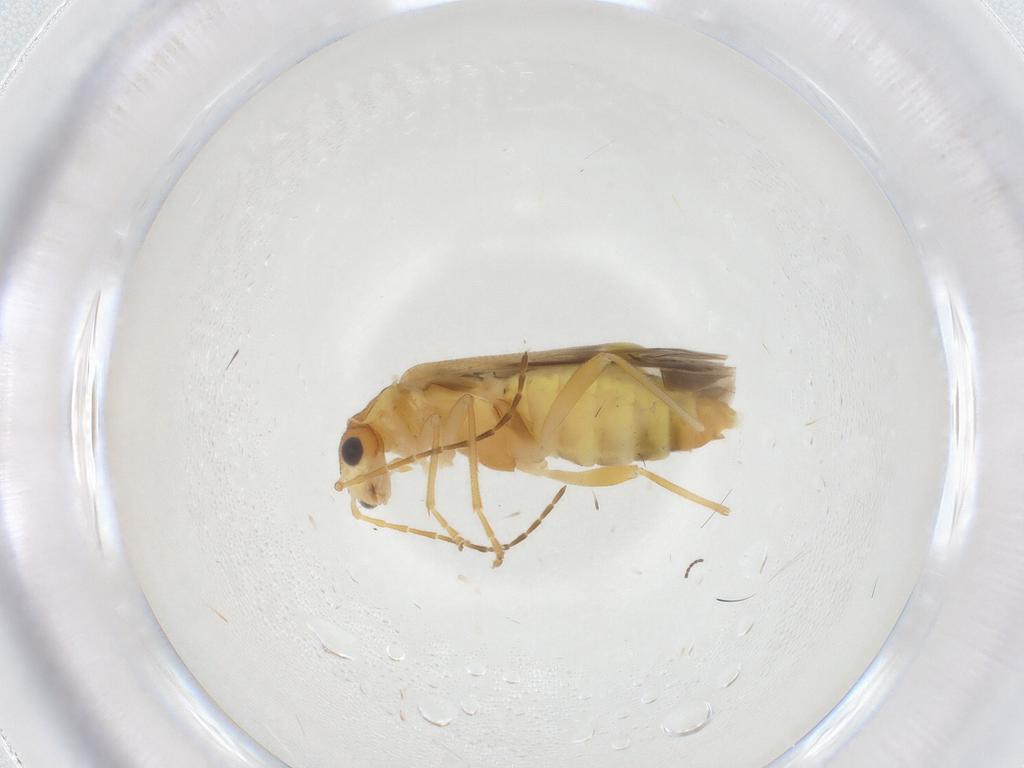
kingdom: Animalia
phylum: Arthropoda
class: Insecta
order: Coleoptera
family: Cantharidae
